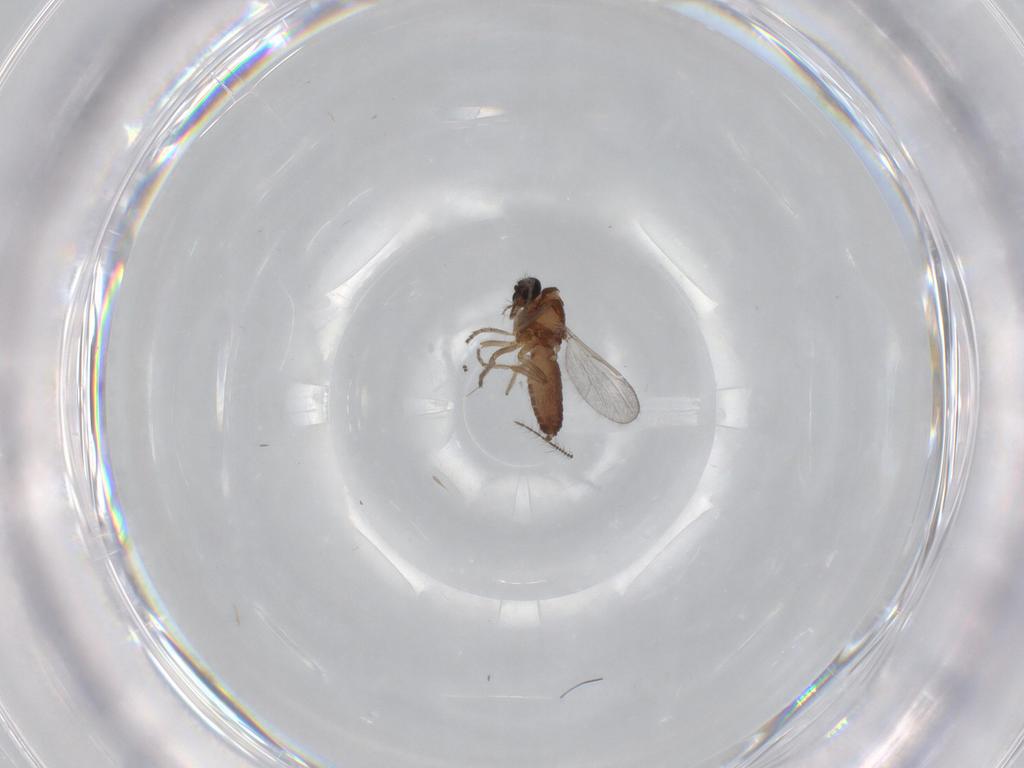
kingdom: Animalia
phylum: Arthropoda
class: Insecta
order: Diptera
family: Ceratopogonidae
